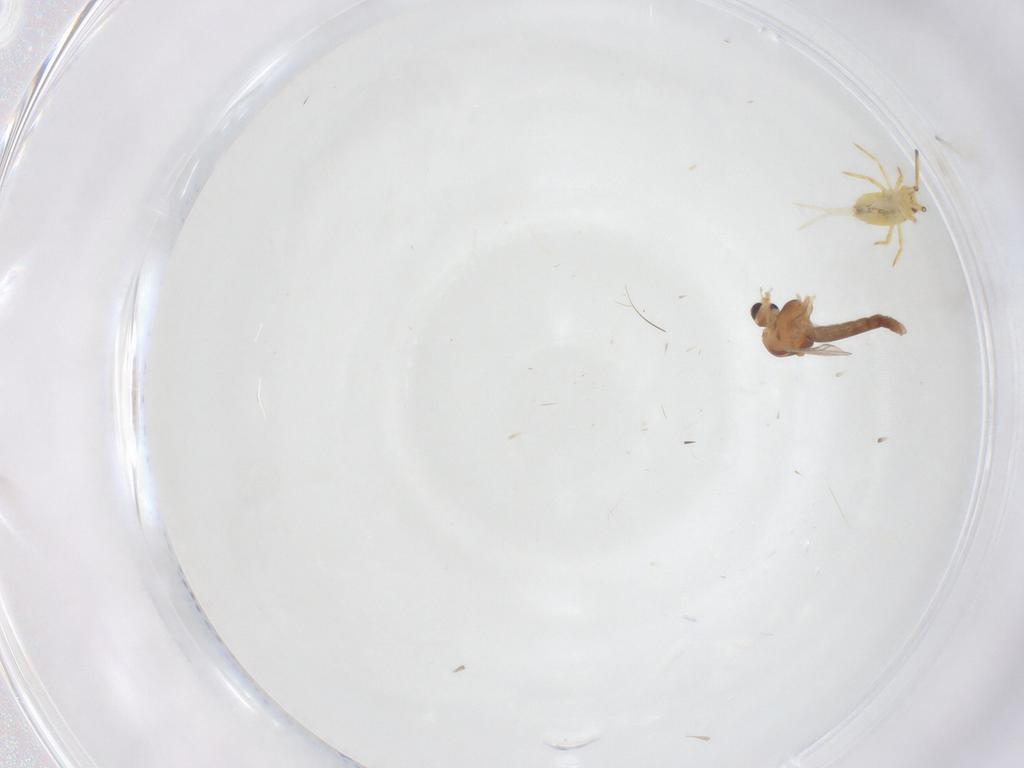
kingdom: Animalia
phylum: Arthropoda
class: Insecta
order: Diptera
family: Chironomidae
